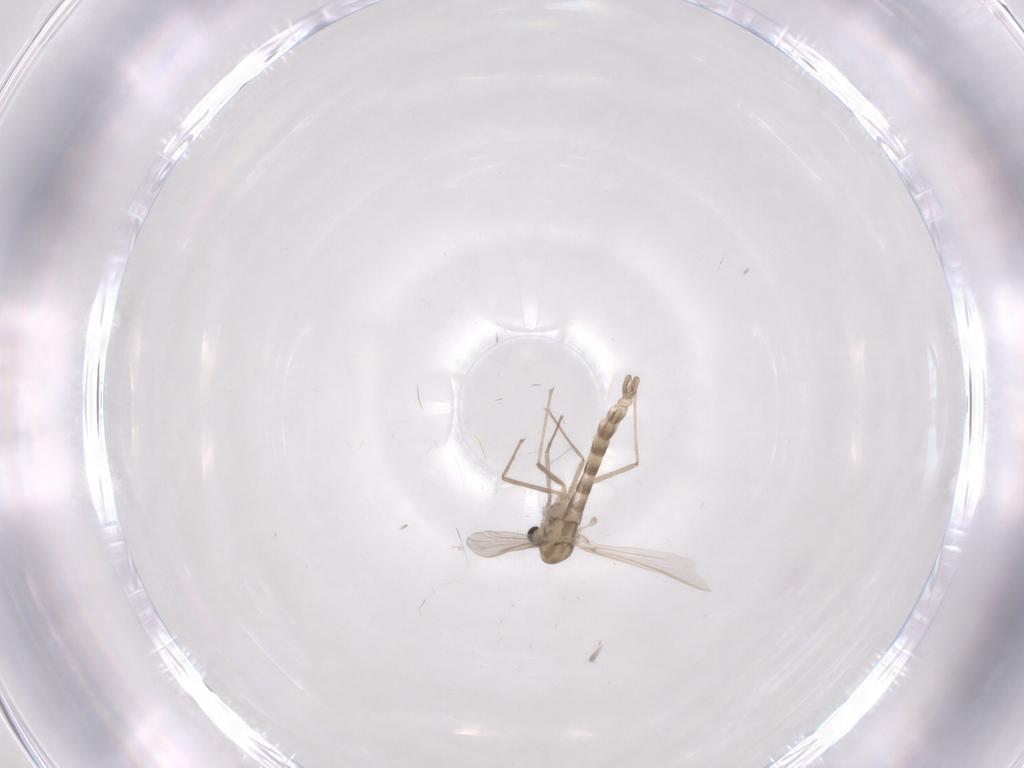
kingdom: Animalia
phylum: Arthropoda
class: Insecta
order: Diptera
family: Chironomidae
